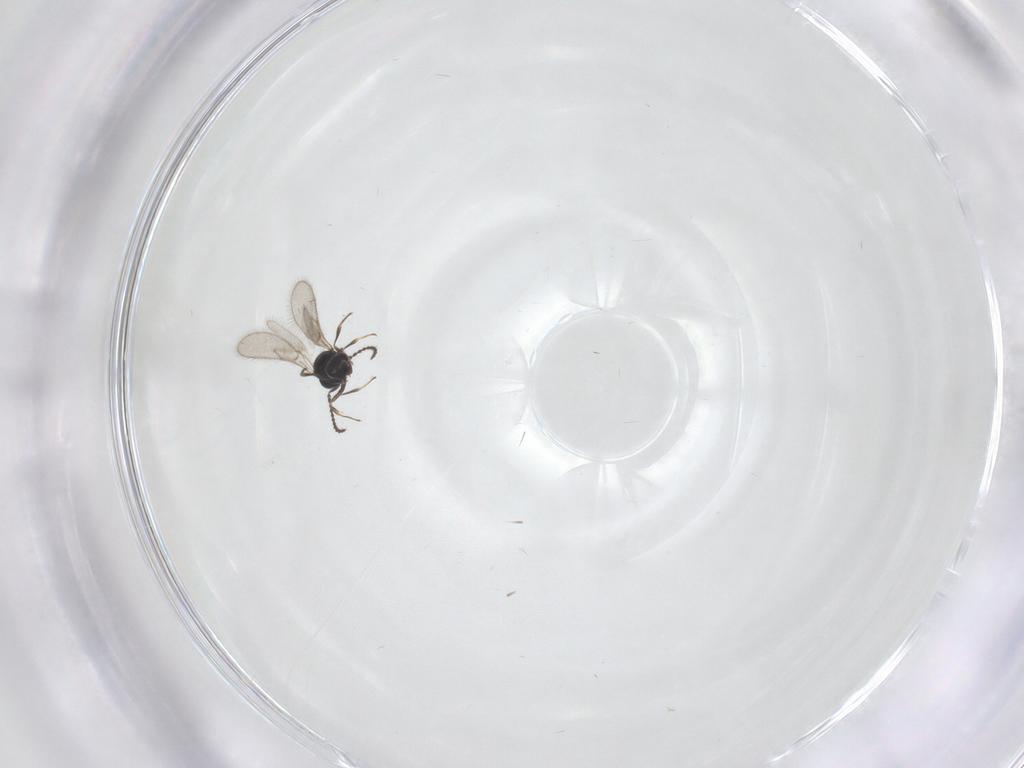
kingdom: Animalia
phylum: Arthropoda
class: Insecta
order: Hymenoptera
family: Scelionidae
